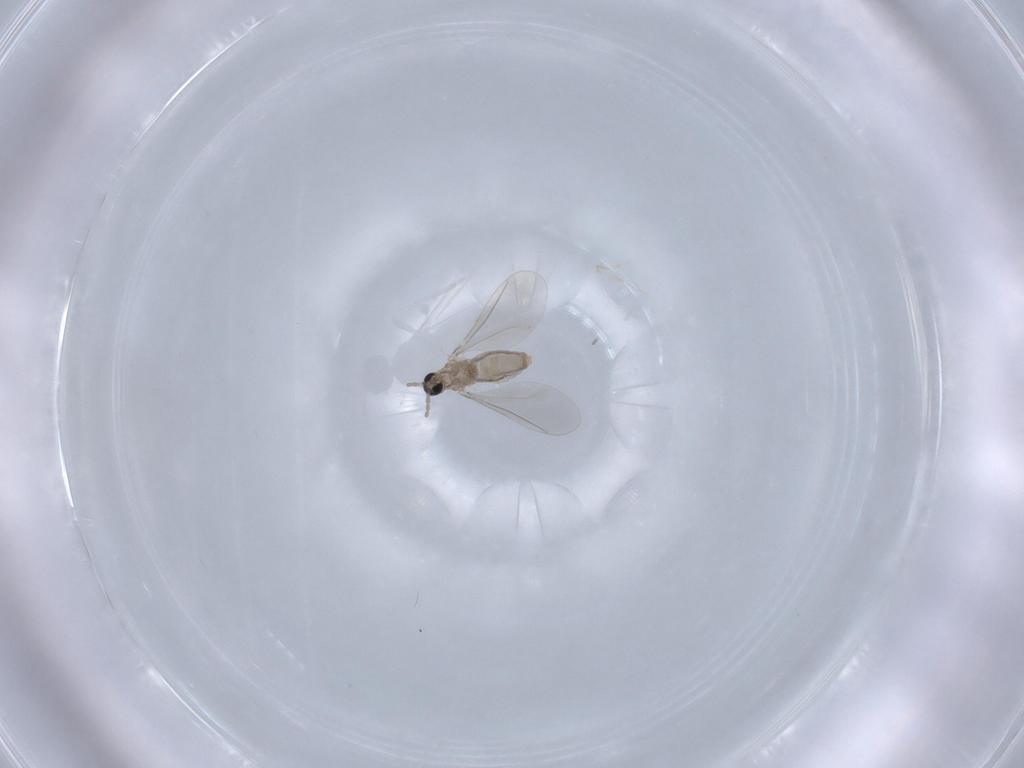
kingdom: Animalia
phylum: Arthropoda
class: Insecta
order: Diptera
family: Cecidomyiidae
